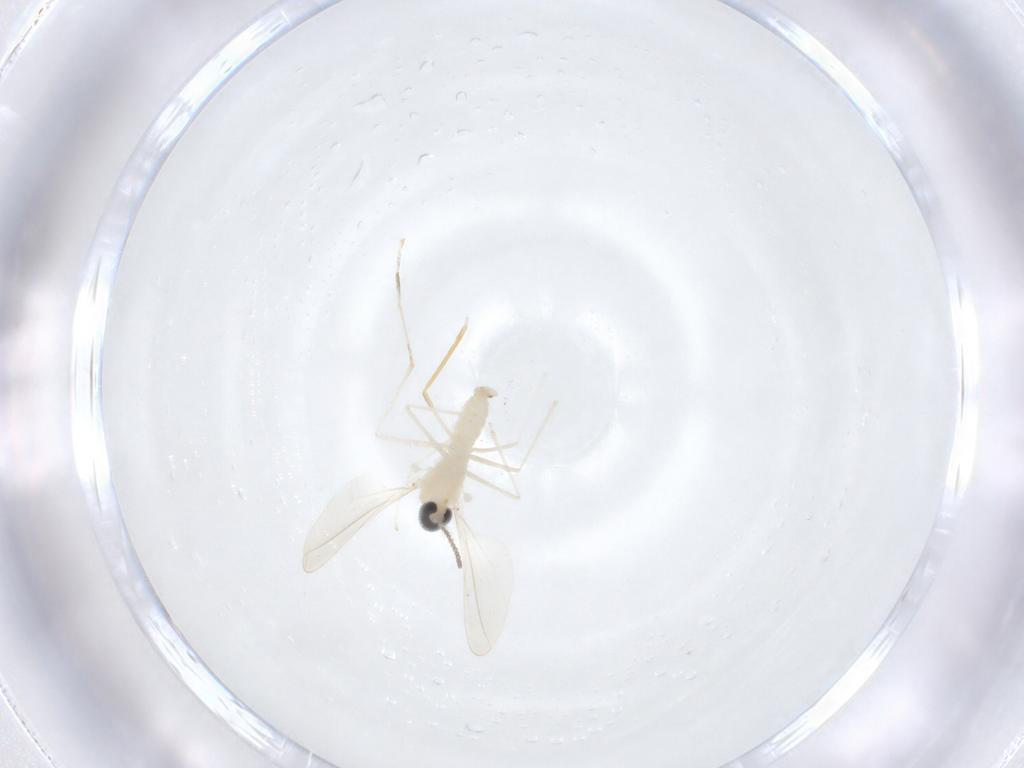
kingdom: Animalia
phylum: Arthropoda
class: Insecta
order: Diptera
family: Cecidomyiidae
